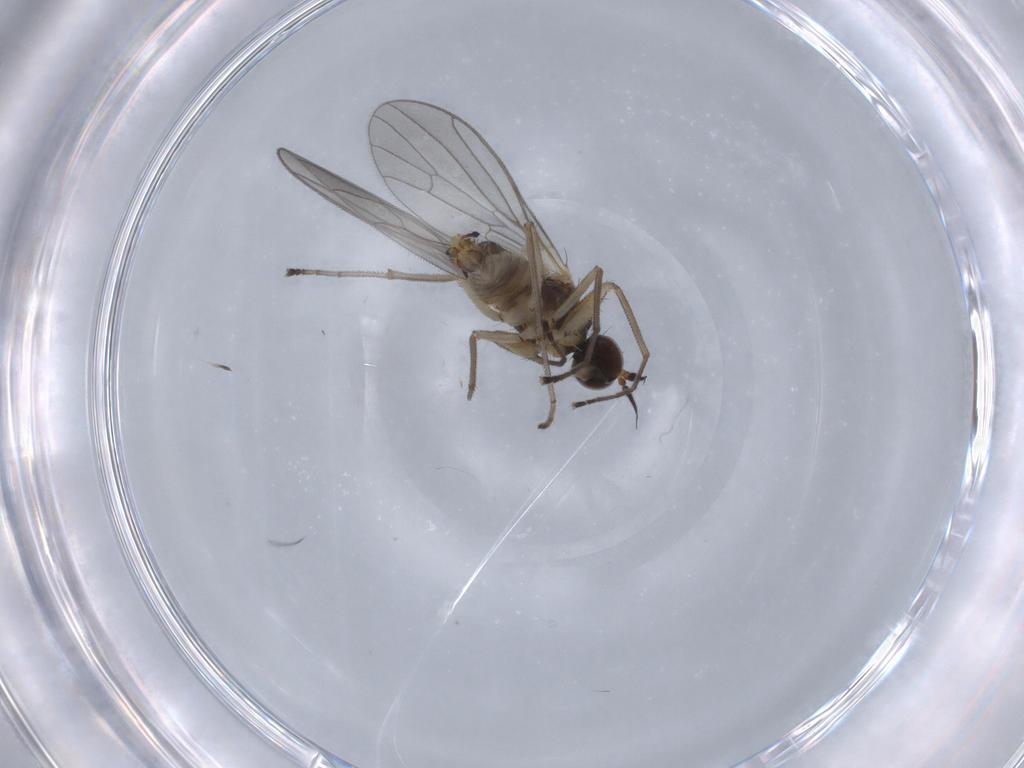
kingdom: Animalia
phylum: Arthropoda
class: Insecta
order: Diptera
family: Empididae
